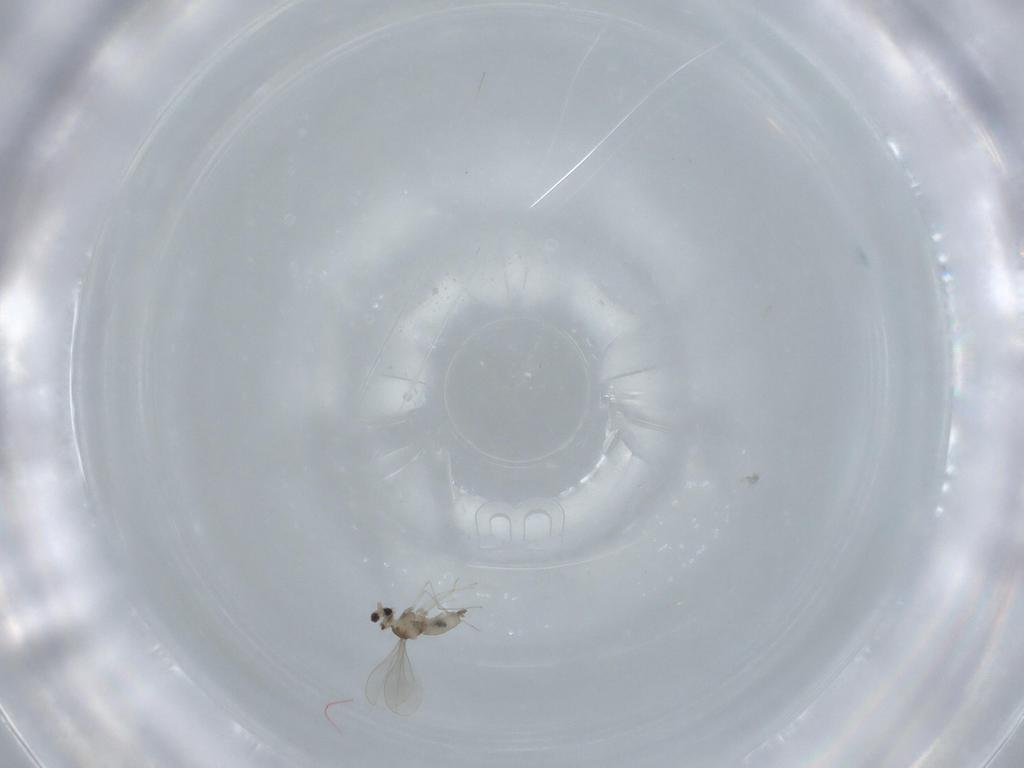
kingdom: Animalia
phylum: Arthropoda
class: Insecta
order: Diptera
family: Cecidomyiidae
